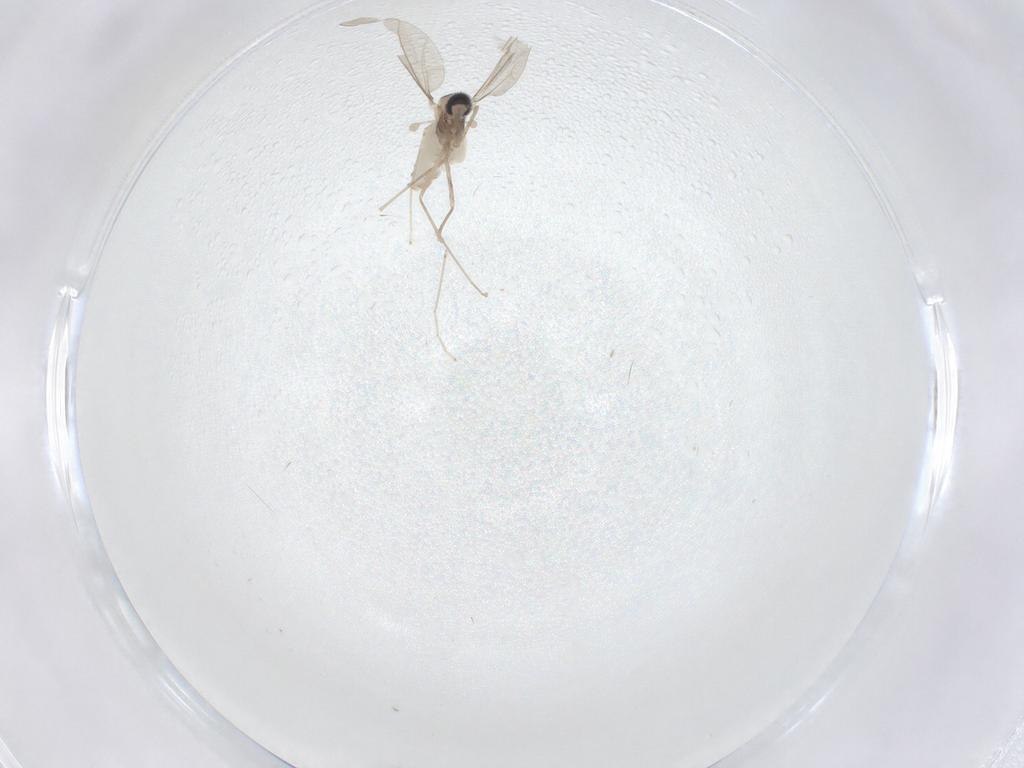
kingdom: Animalia
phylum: Arthropoda
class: Insecta
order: Diptera
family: Cecidomyiidae
